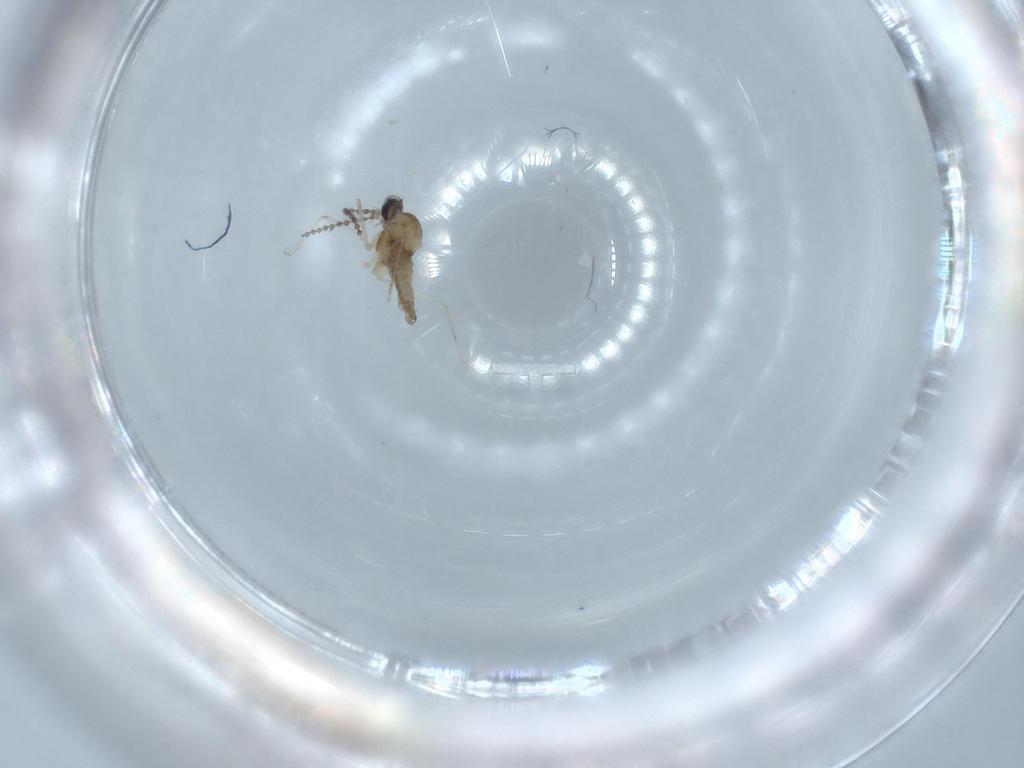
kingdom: Animalia
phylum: Arthropoda
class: Insecta
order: Diptera
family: Cecidomyiidae
